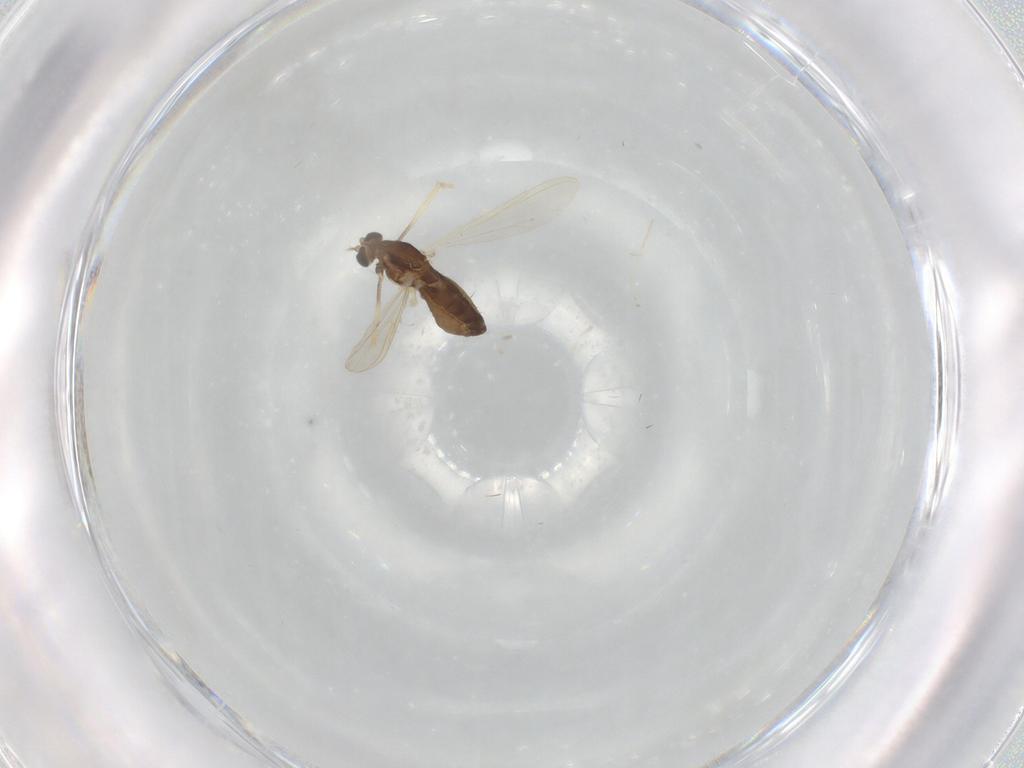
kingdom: Animalia
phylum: Arthropoda
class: Insecta
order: Diptera
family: Chironomidae
